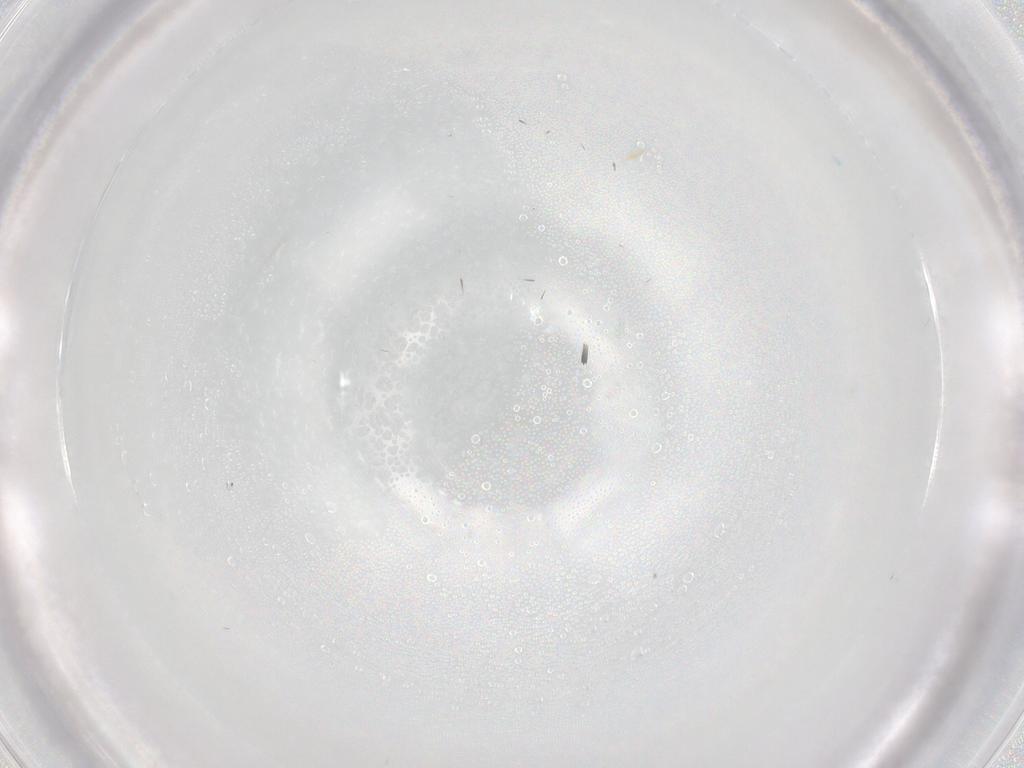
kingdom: Animalia
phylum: Arthropoda
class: Insecta
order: Diptera
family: Phoridae
